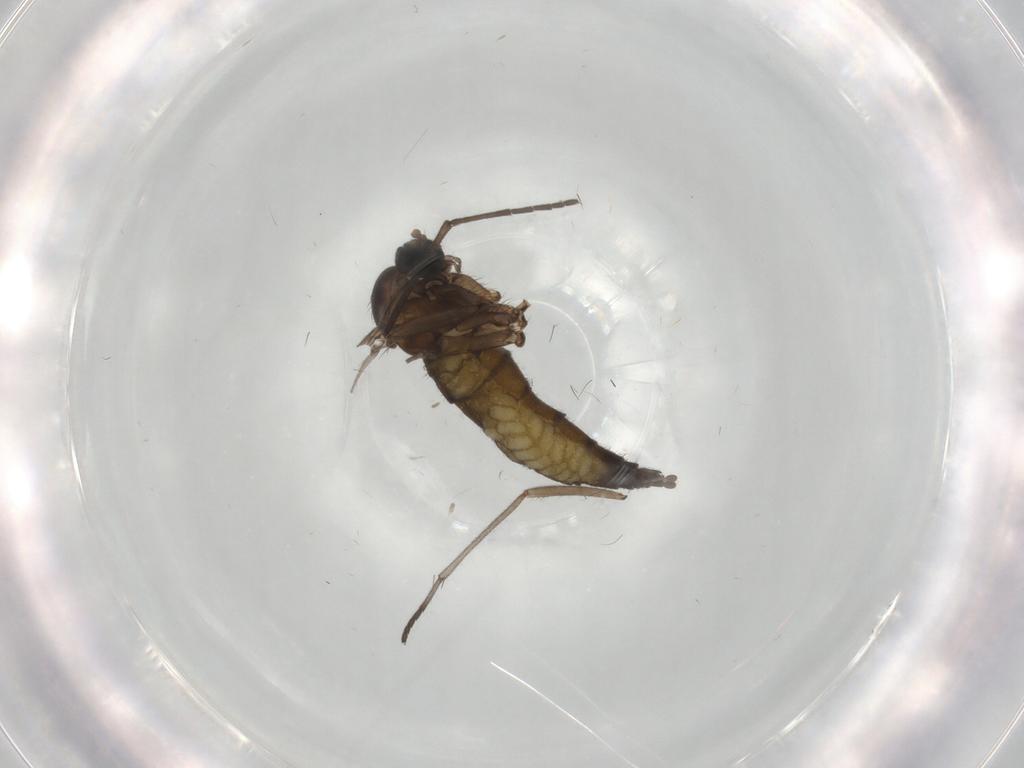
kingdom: Animalia
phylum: Arthropoda
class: Insecta
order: Diptera
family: Sciaridae
